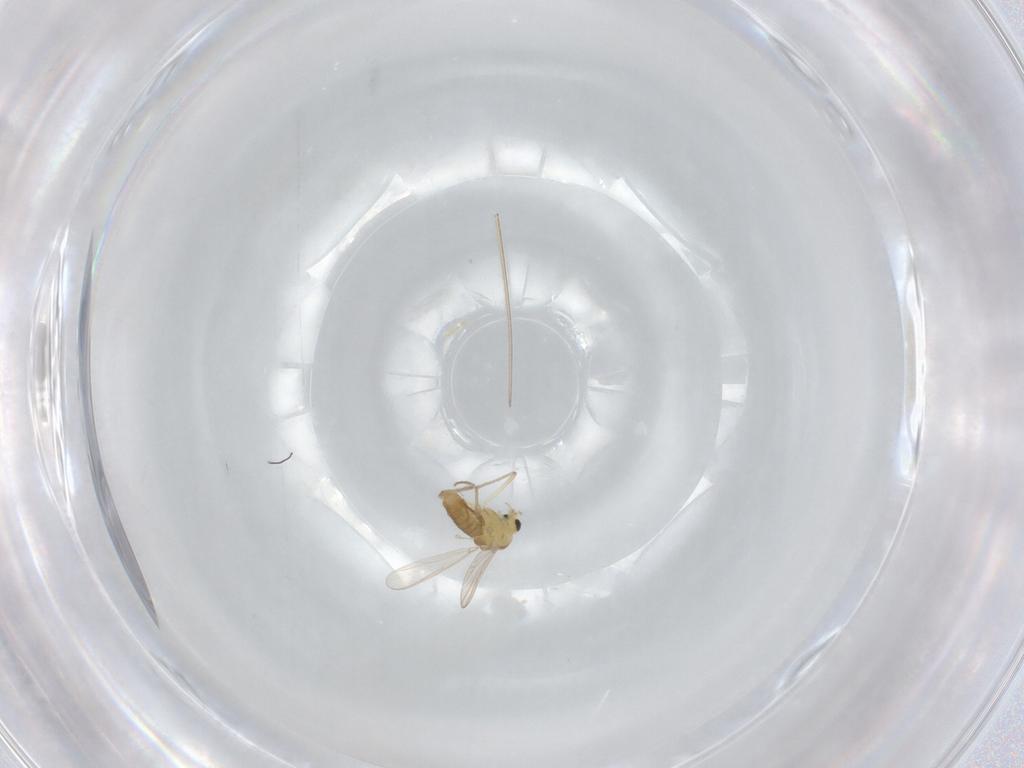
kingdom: Animalia
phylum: Arthropoda
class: Insecta
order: Diptera
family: Chironomidae
